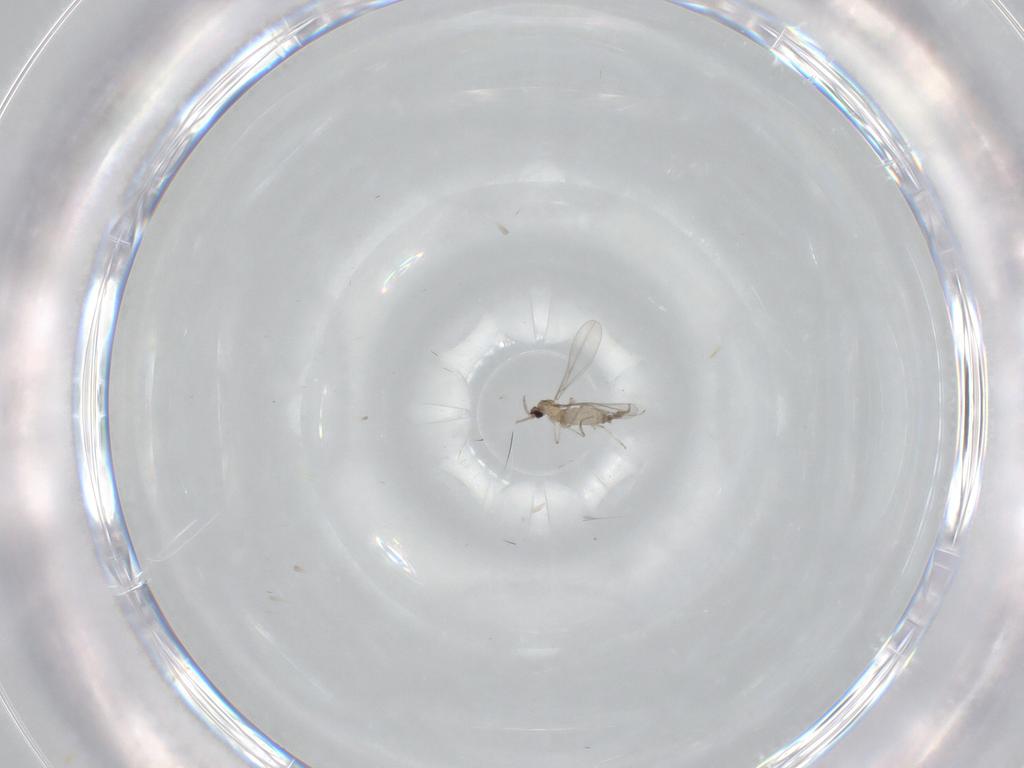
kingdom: Animalia
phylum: Arthropoda
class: Insecta
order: Diptera
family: Cecidomyiidae
